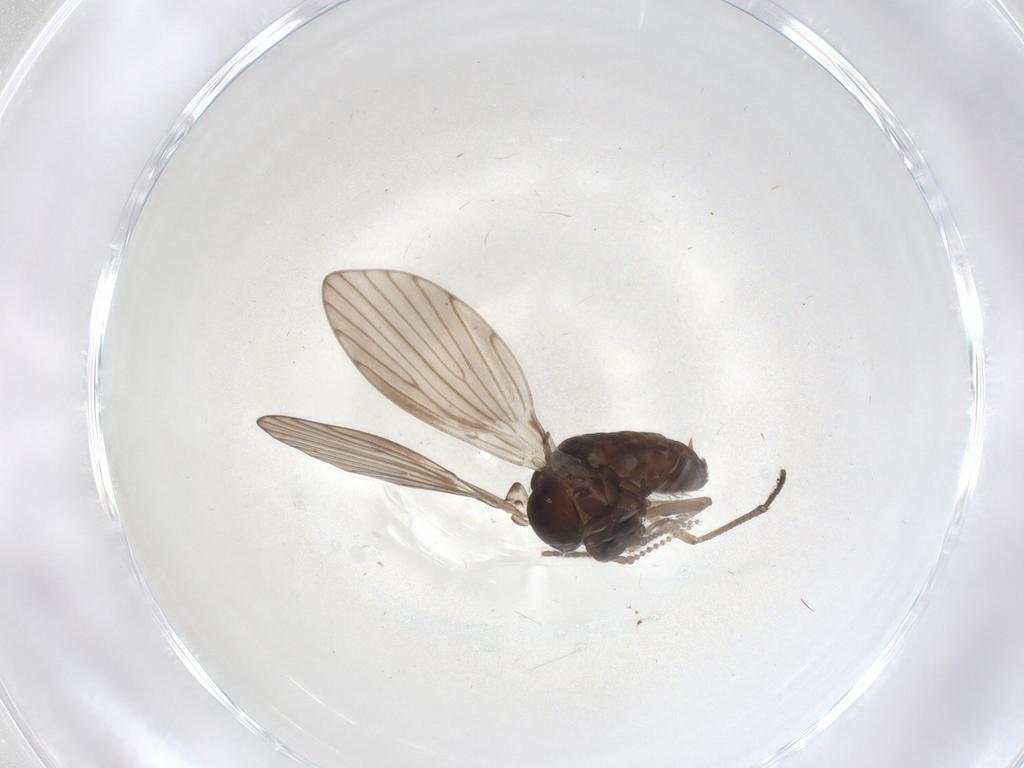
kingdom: Animalia
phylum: Arthropoda
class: Insecta
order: Diptera
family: Psychodidae
